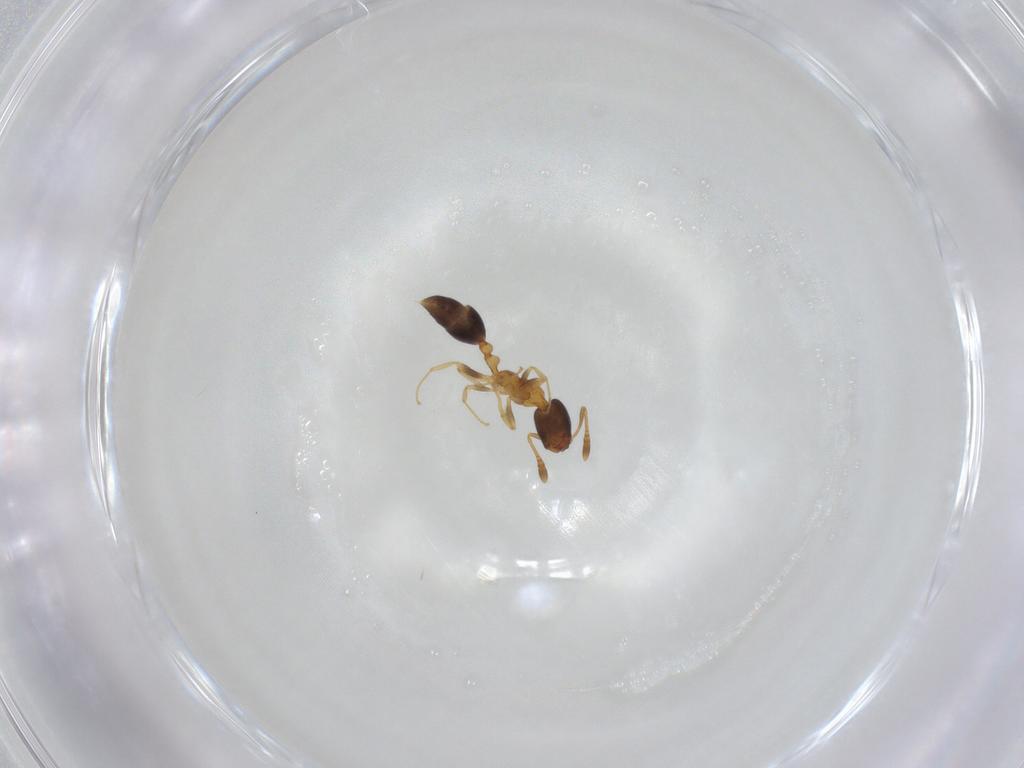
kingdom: Animalia
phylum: Arthropoda
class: Insecta
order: Hymenoptera
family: Formicidae
